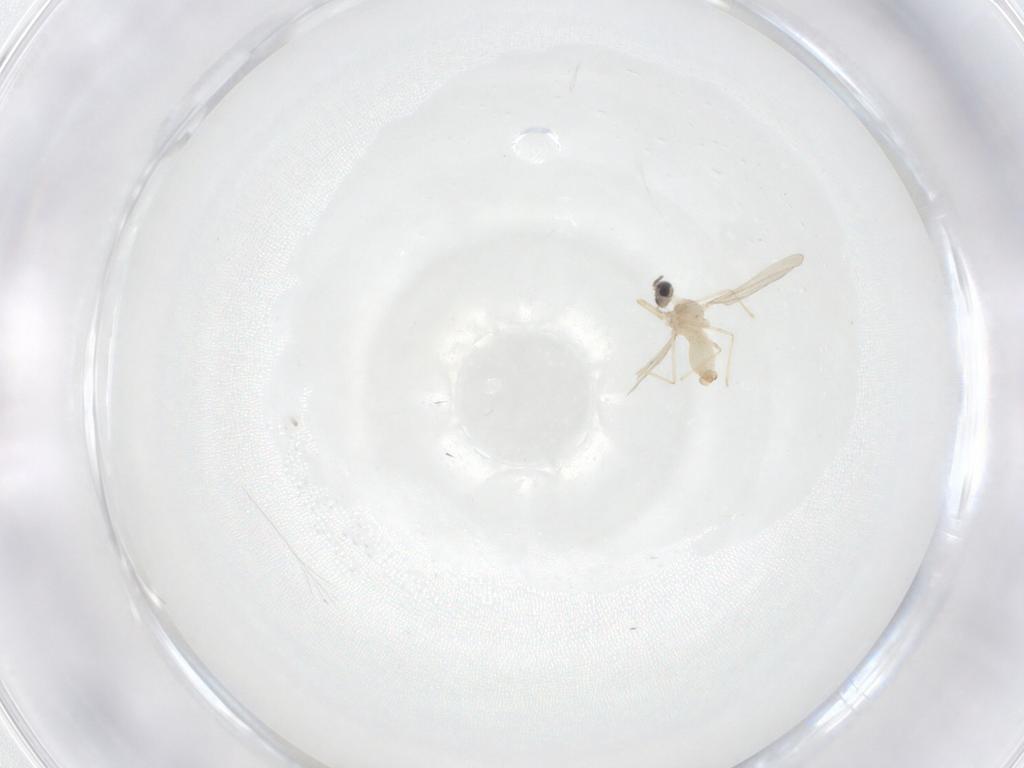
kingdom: Animalia
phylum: Arthropoda
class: Insecta
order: Diptera
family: Cecidomyiidae
